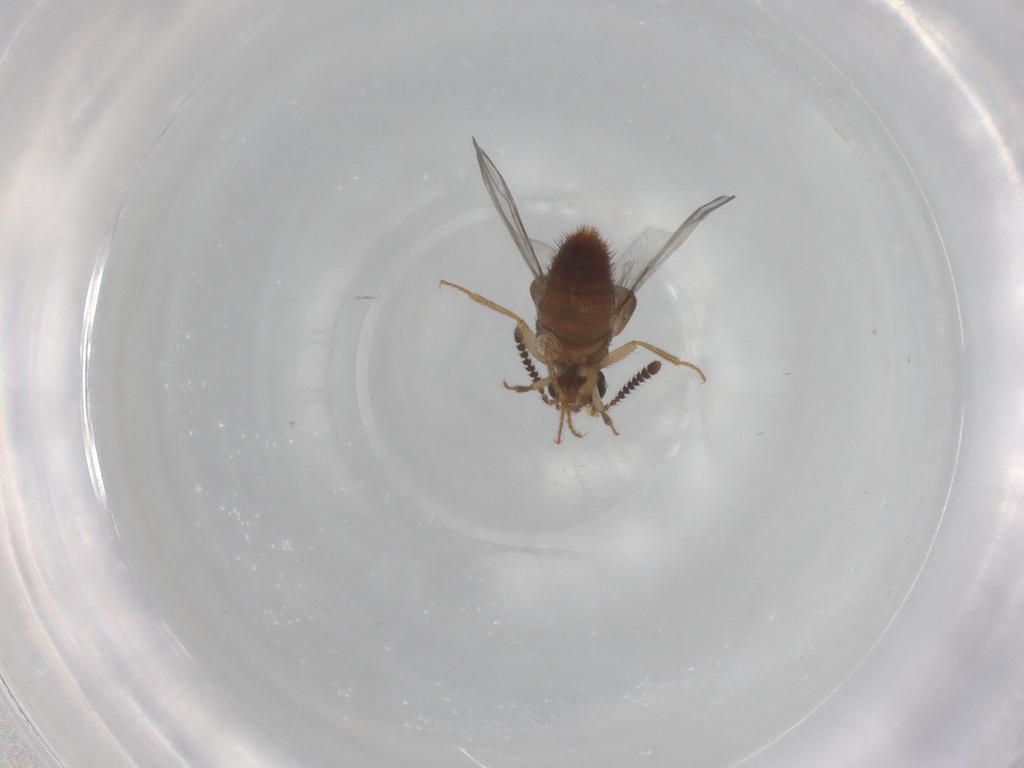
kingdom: Animalia
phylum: Arthropoda
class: Insecta
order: Coleoptera
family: Staphylinidae
